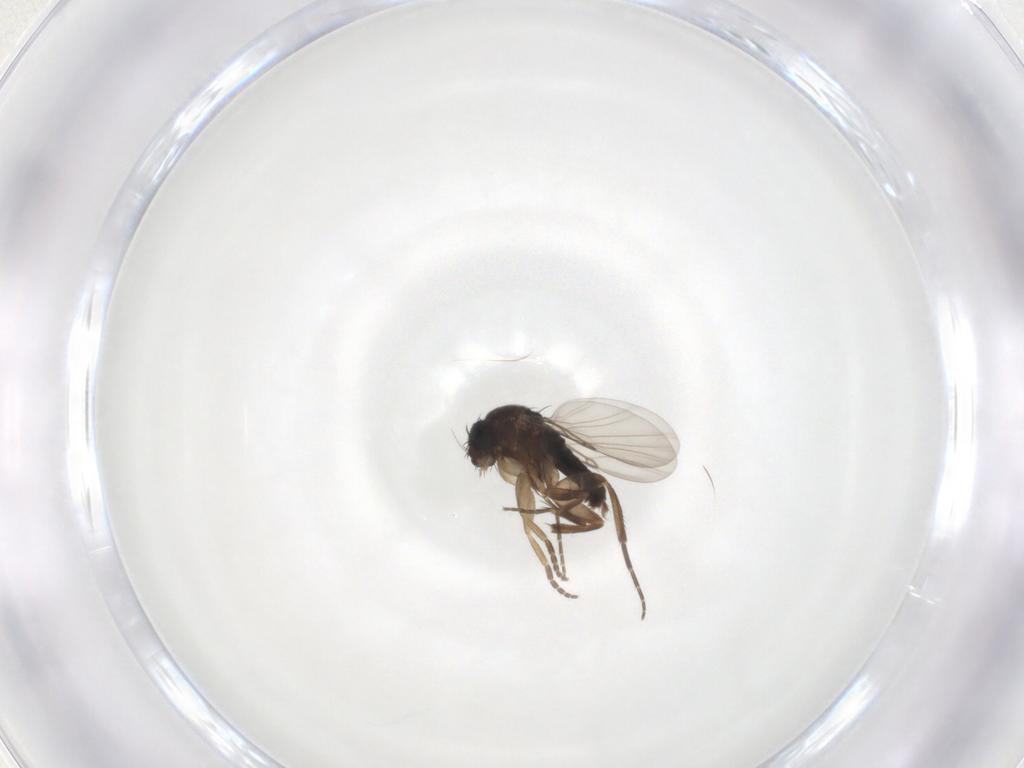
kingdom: Animalia
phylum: Arthropoda
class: Insecta
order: Diptera
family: Phoridae
